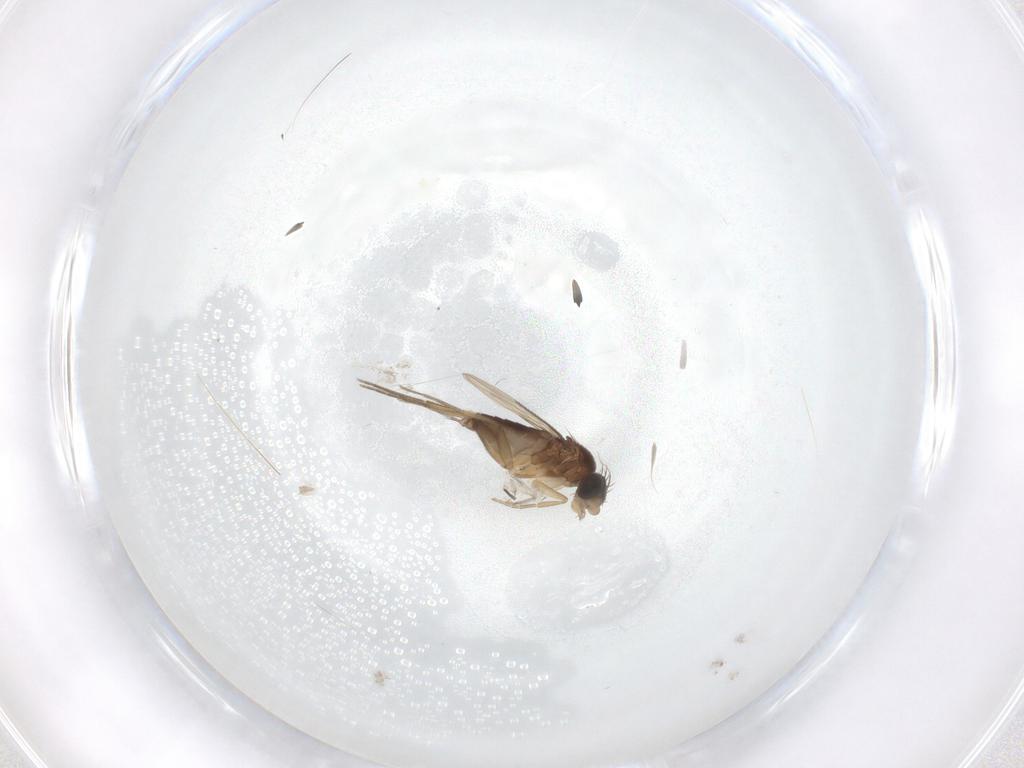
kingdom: Animalia
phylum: Arthropoda
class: Insecta
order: Diptera
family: Phoridae
